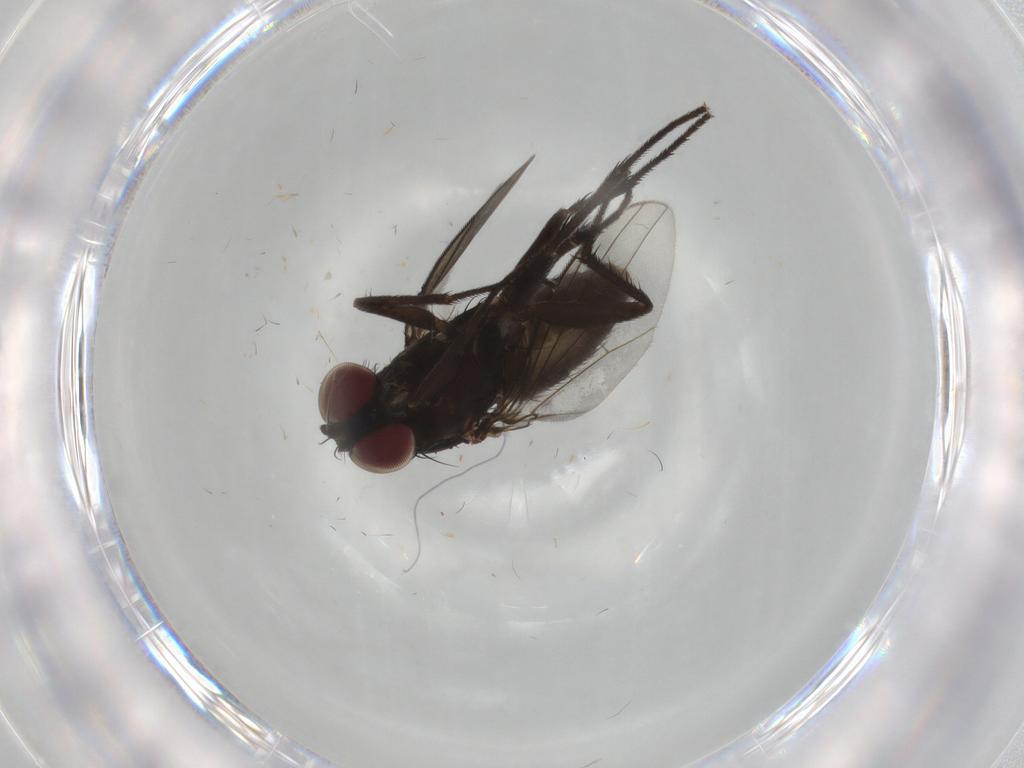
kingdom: Animalia
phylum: Arthropoda
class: Insecta
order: Diptera
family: Dolichopodidae
